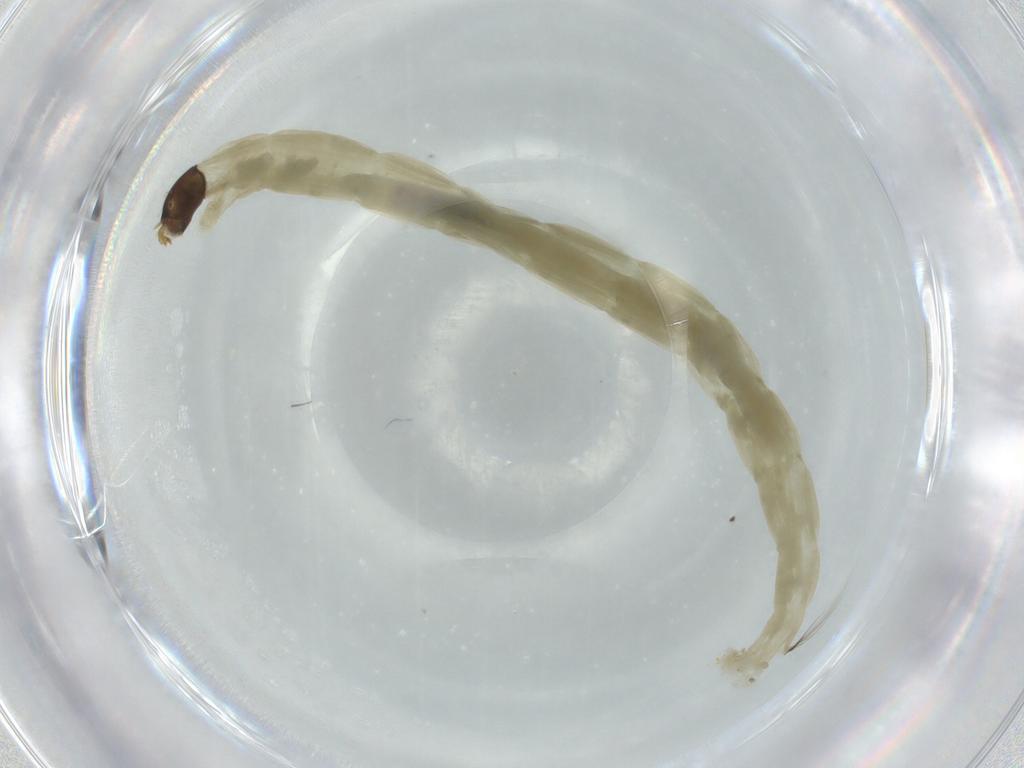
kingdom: Animalia
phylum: Arthropoda
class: Insecta
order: Diptera
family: Chironomidae
